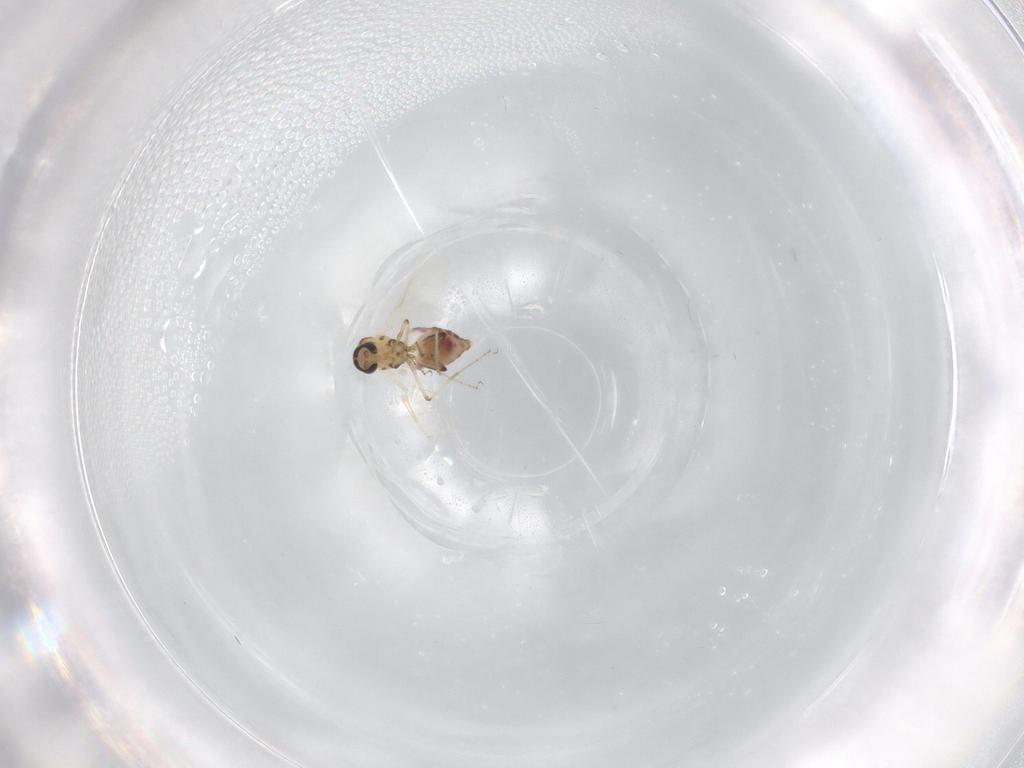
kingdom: Animalia
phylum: Arthropoda
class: Insecta
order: Diptera
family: Ceratopogonidae
